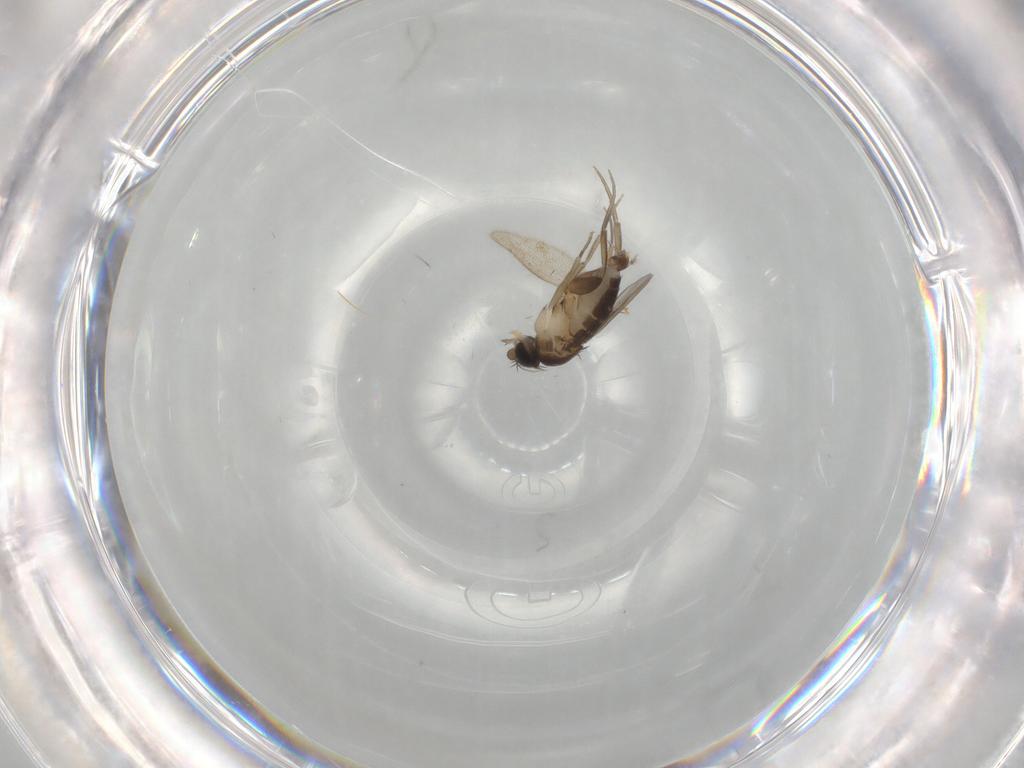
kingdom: Animalia
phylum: Arthropoda
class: Insecta
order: Diptera
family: Phoridae
